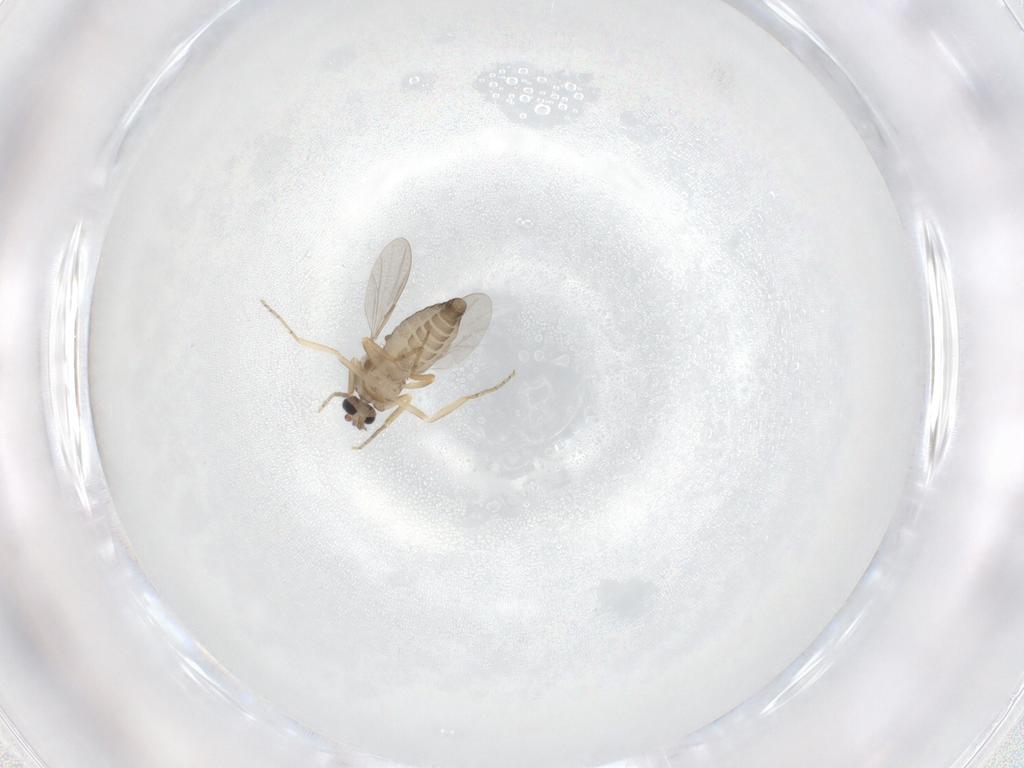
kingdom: Animalia
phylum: Arthropoda
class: Insecta
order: Diptera
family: Ceratopogonidae
